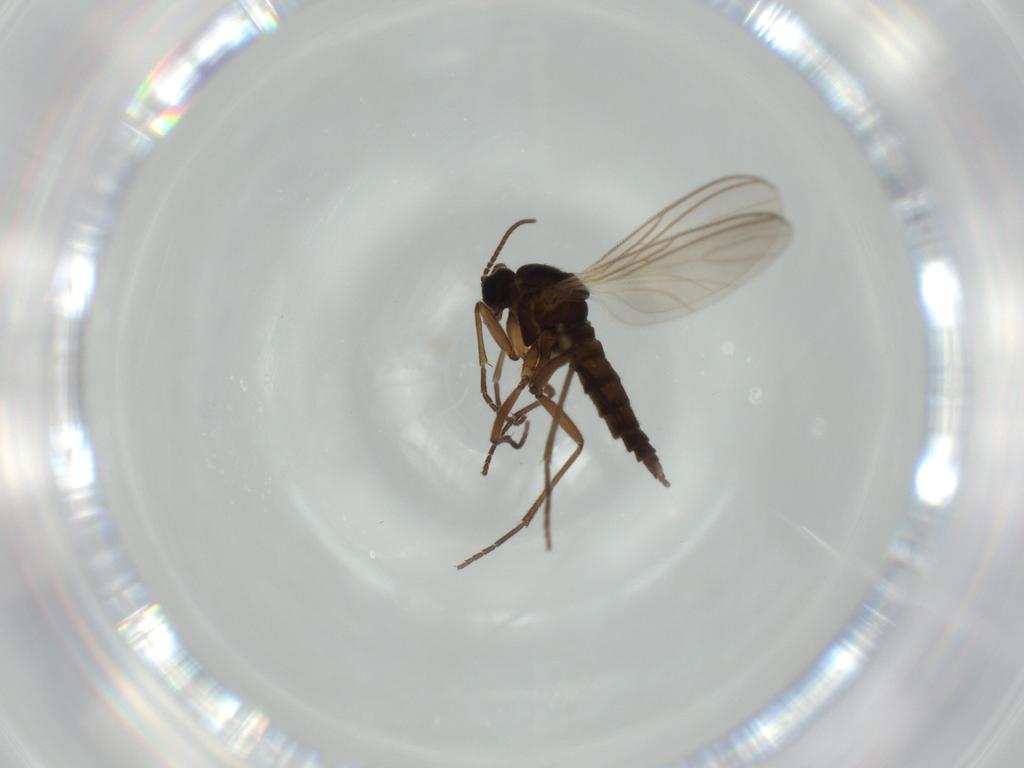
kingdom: Animalia
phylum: Arthropoda
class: Insecta
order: Diptera
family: Sciaridae
